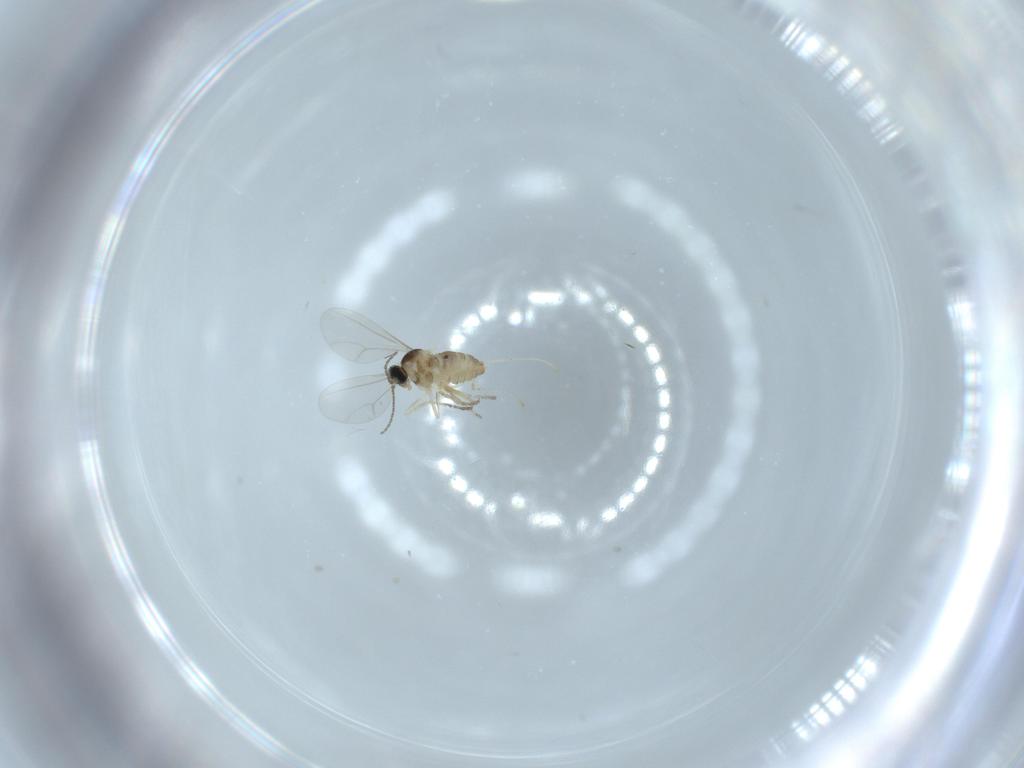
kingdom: Animalia
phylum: Arthropoda
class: Insecta
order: Diptera
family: Cecidomyiidae
